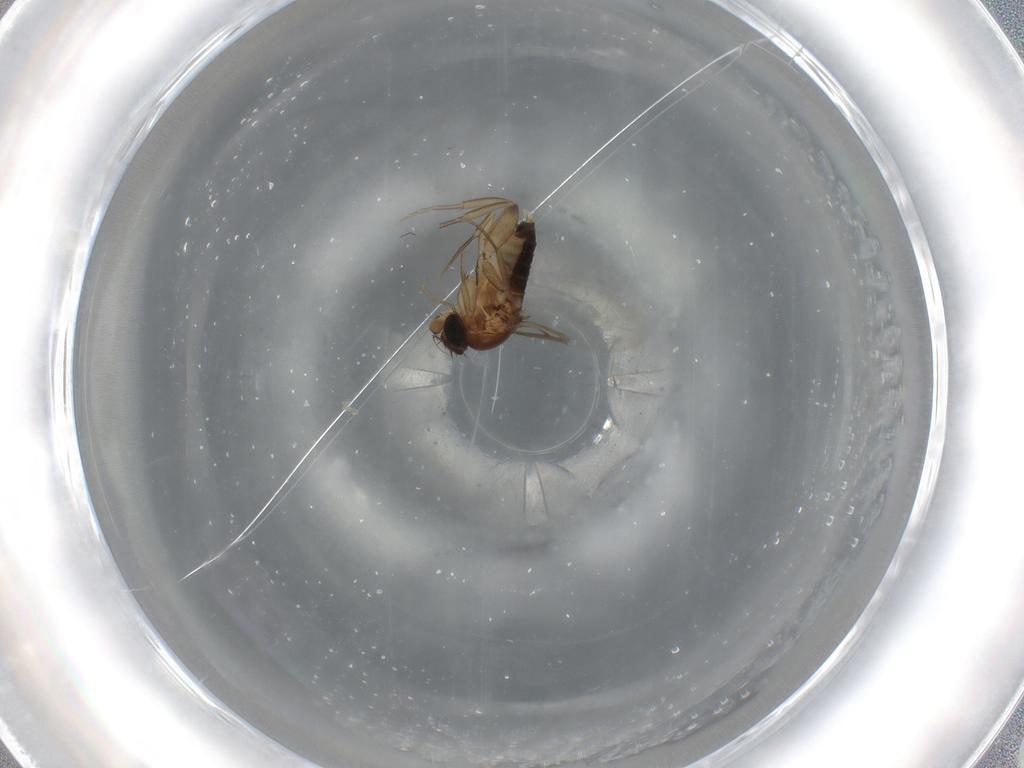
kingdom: Animalia
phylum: Arthropoda
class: Insecta
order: Diptera
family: Phoridae
